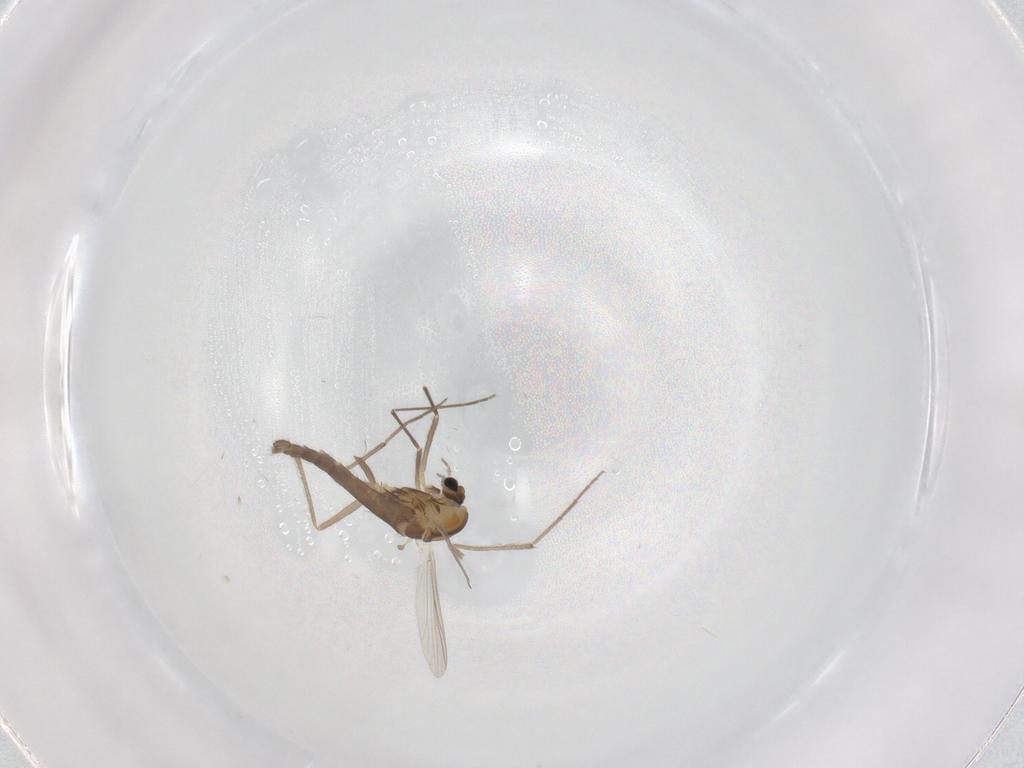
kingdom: Animalia
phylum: Arthropoda
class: Insecta
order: Diptera
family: Chironomidae
